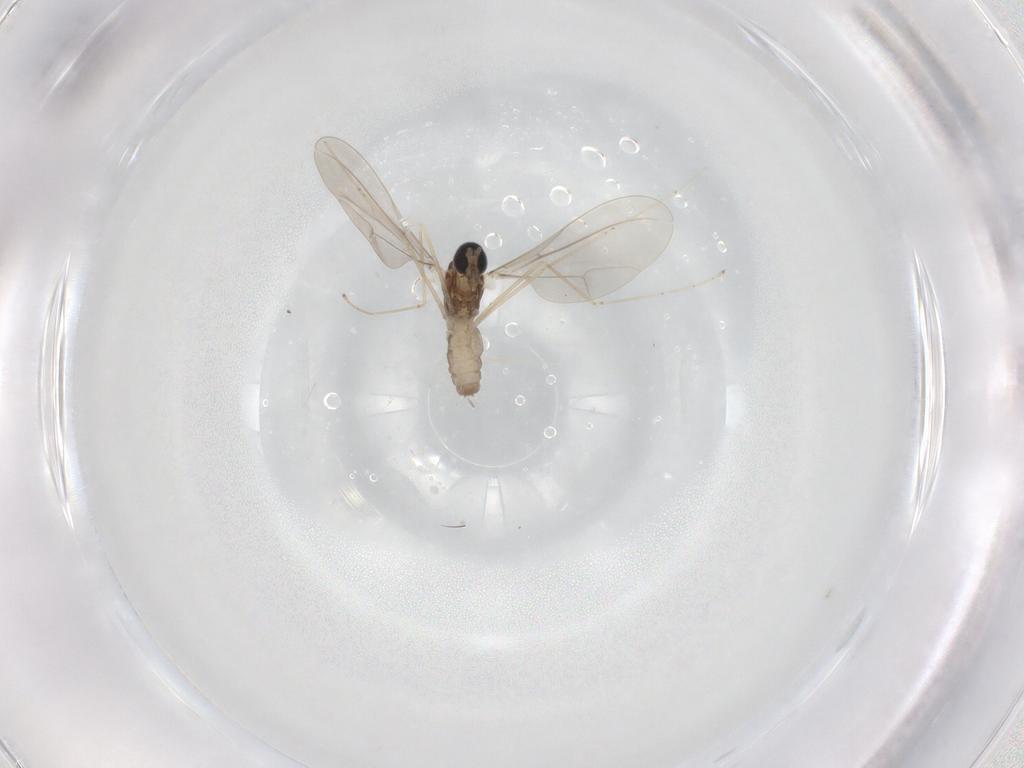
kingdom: Animalia
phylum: Arthropoda
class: Insecta
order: Diptera
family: Cecidomyiidae
